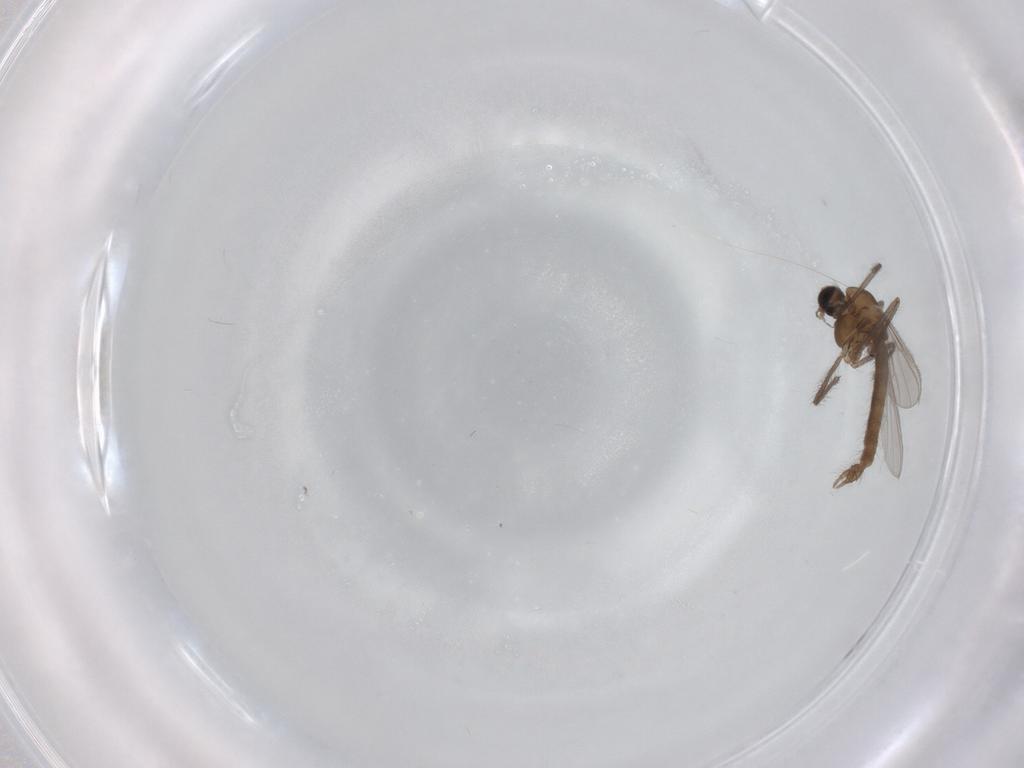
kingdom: Animalia
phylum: Arthropoda
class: Insecta
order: Diptera
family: Chironomidae
